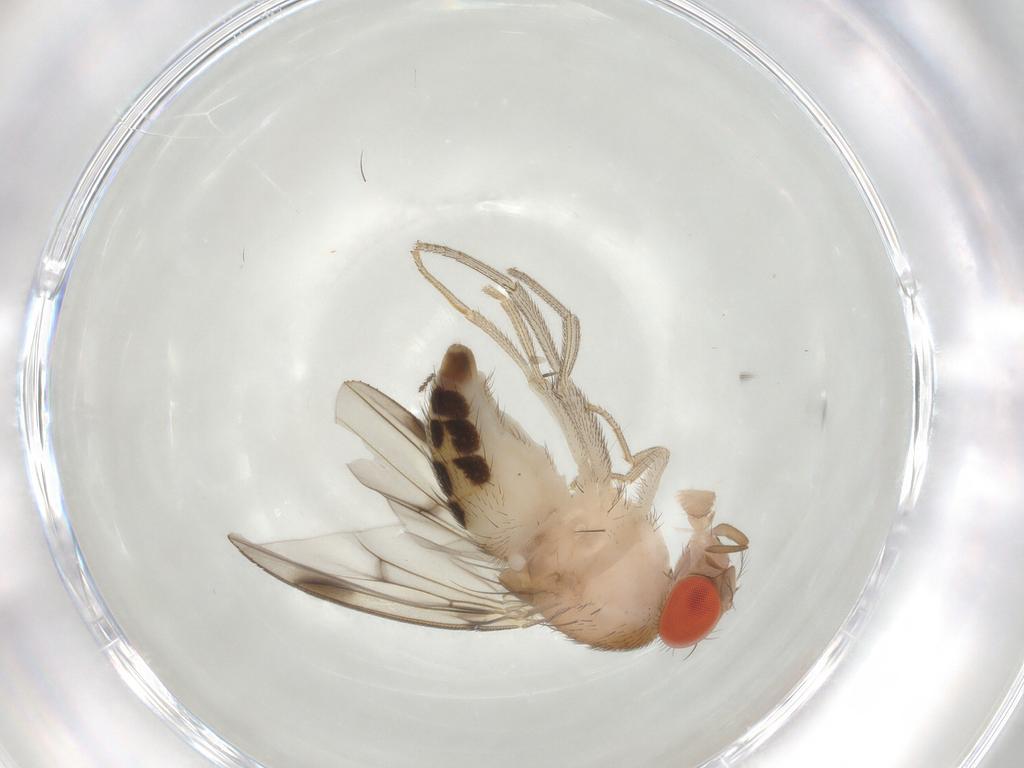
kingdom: Animalia
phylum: Arthropoda
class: Insecta
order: Diptera
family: Drosophilidae
